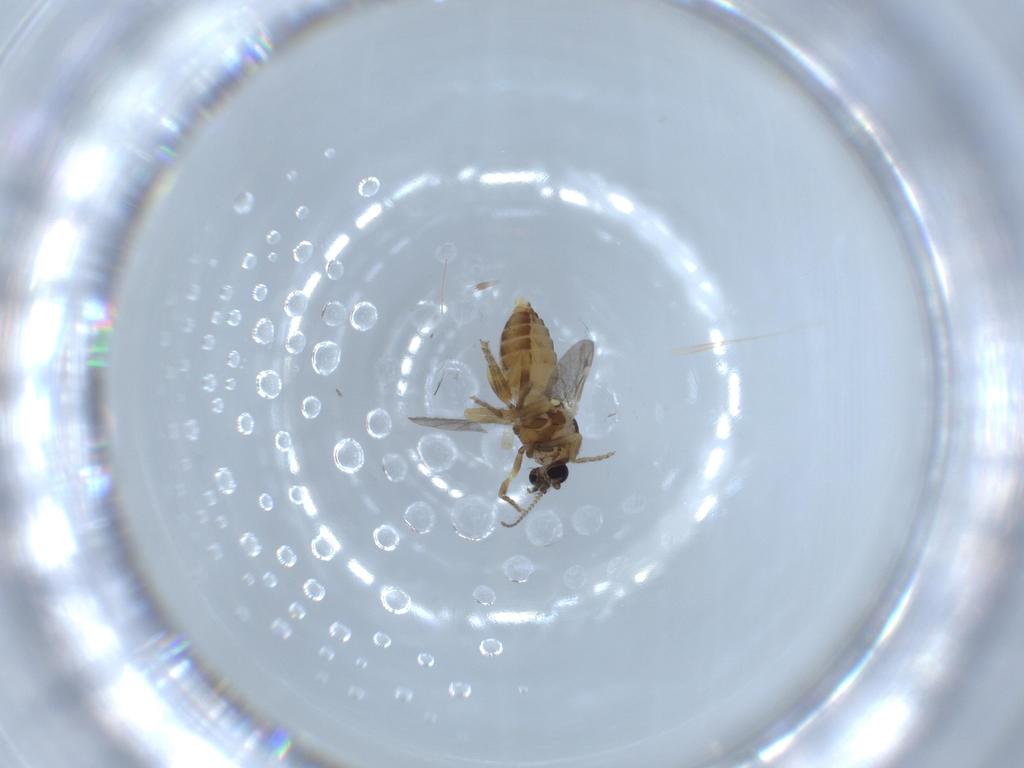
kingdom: Animalia
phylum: Arthropoda
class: Insecta
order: Diptera
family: Ceratopogonidae
